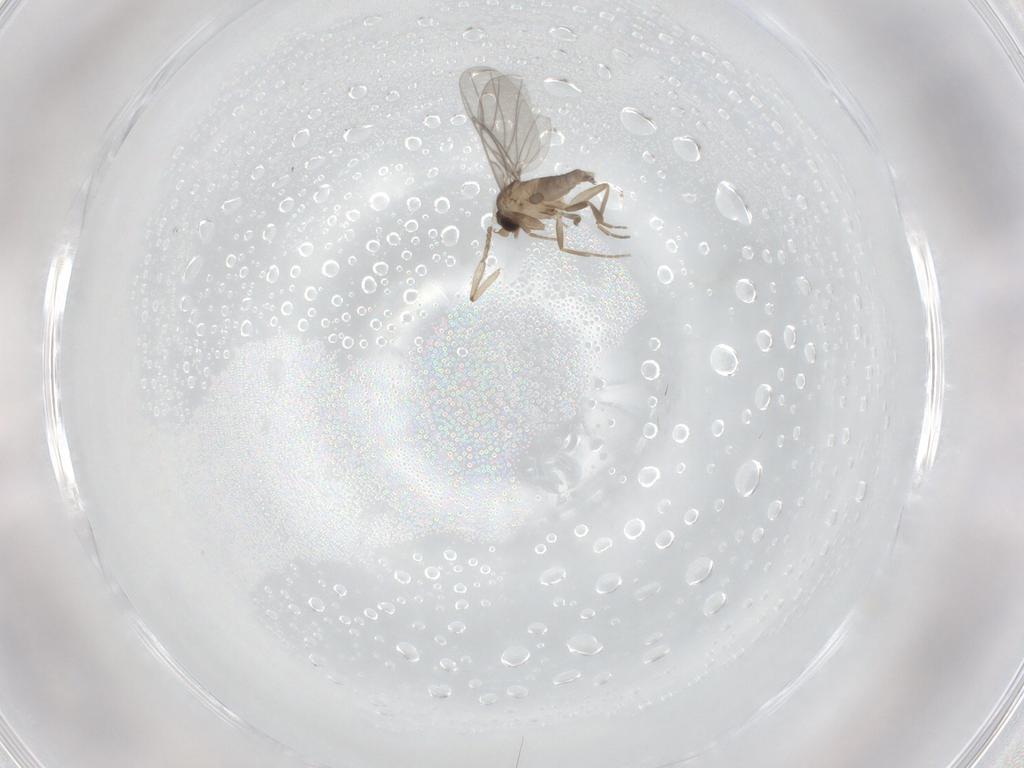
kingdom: Animalia
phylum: Arthropoda
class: Insecta
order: Diptera
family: Phoridae
